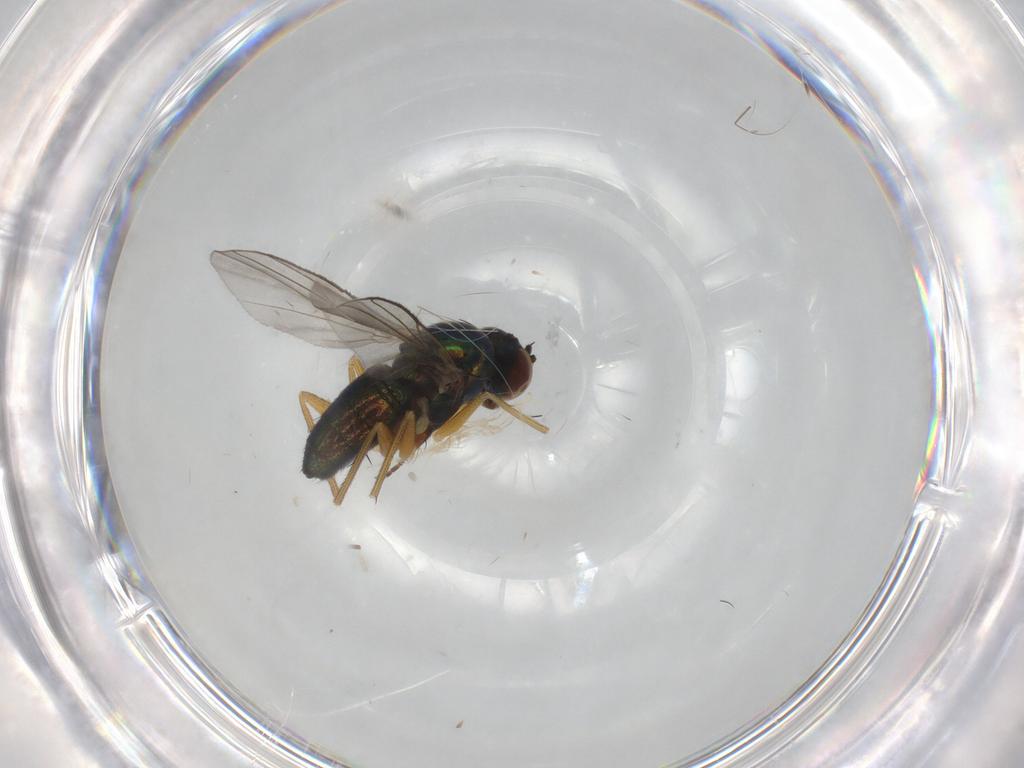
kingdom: Animalia
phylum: Arthropoda
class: Insecta
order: Diptera
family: Dolichopodidae
